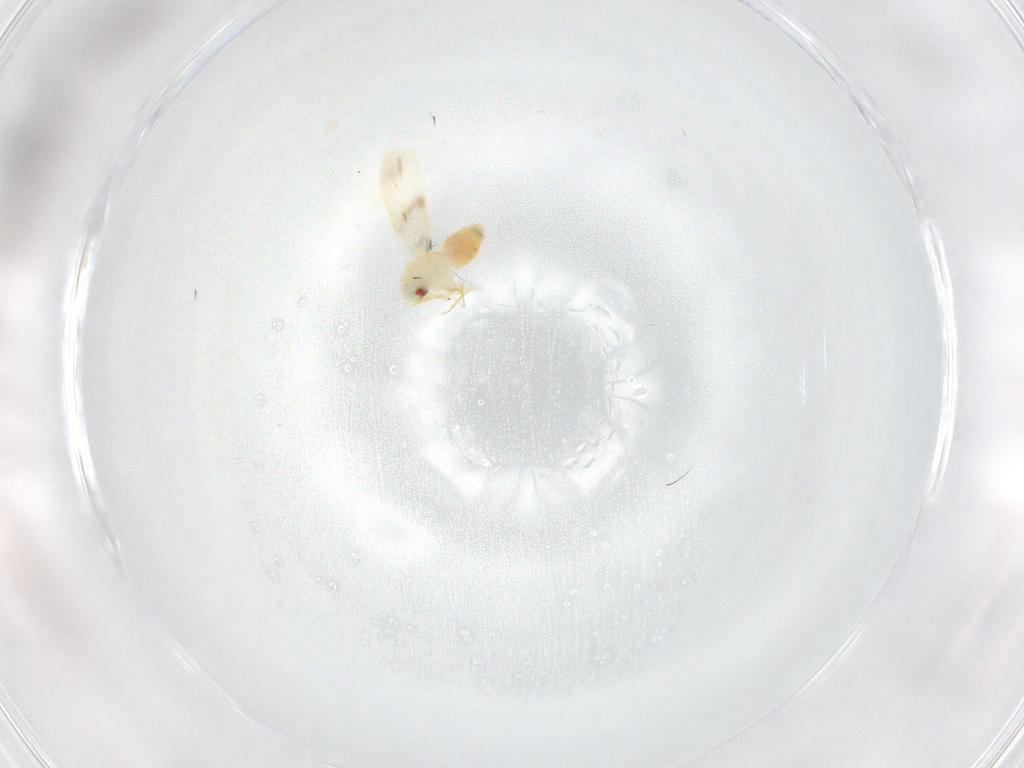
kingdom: Animalia
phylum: Arthropoda
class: Insecta
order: Hemiptera
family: Aleyrodidae
